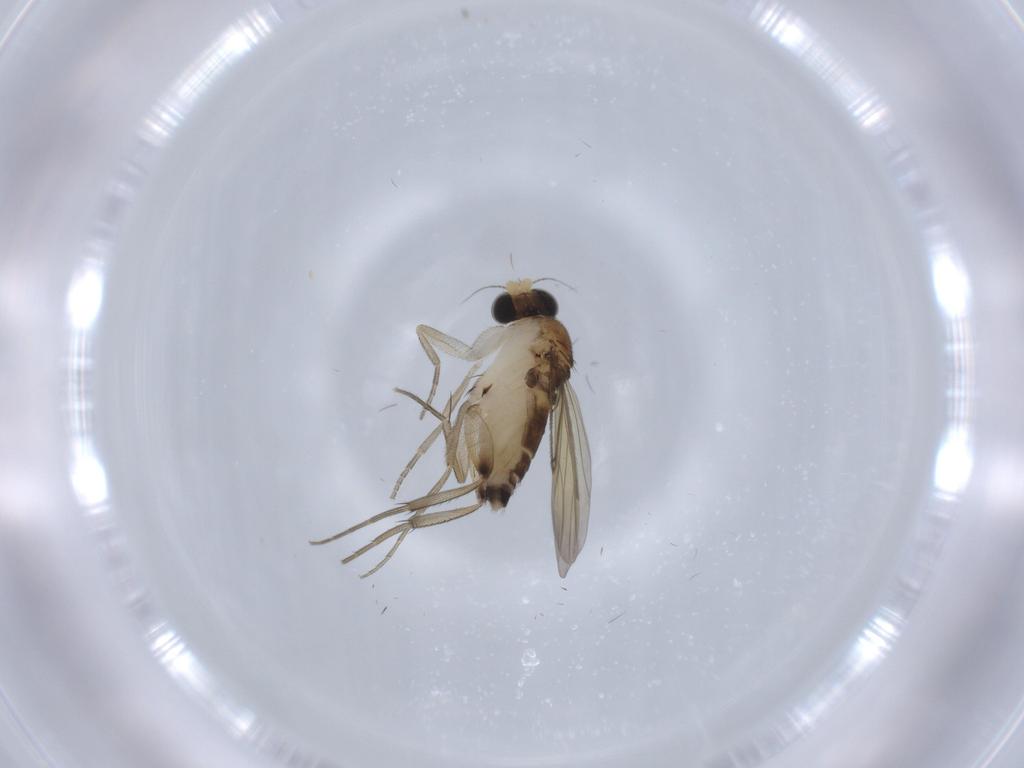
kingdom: Animalia
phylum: Arthropoda
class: Insecta
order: Diptera
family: Phoridae
